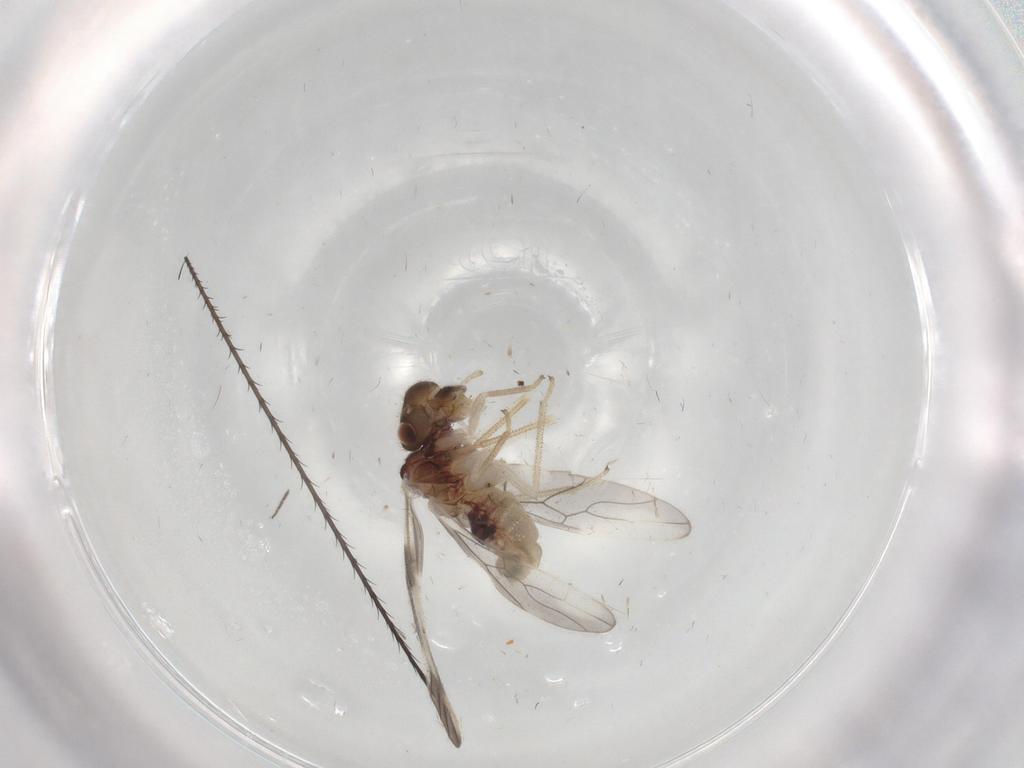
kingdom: Animalia
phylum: Arthropoda
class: Insecta
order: Psocodea
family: Caeciliusidae
